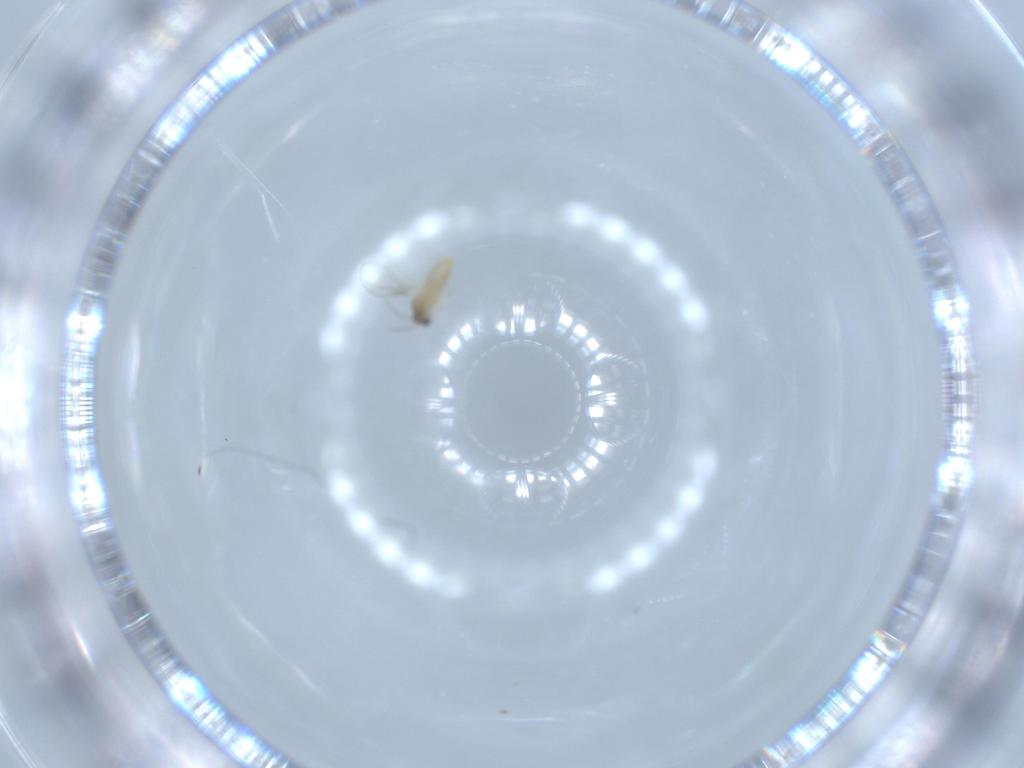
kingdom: Animalia
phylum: Arthropoda
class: Insecta
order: Diptera
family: Cecidomyiidae
